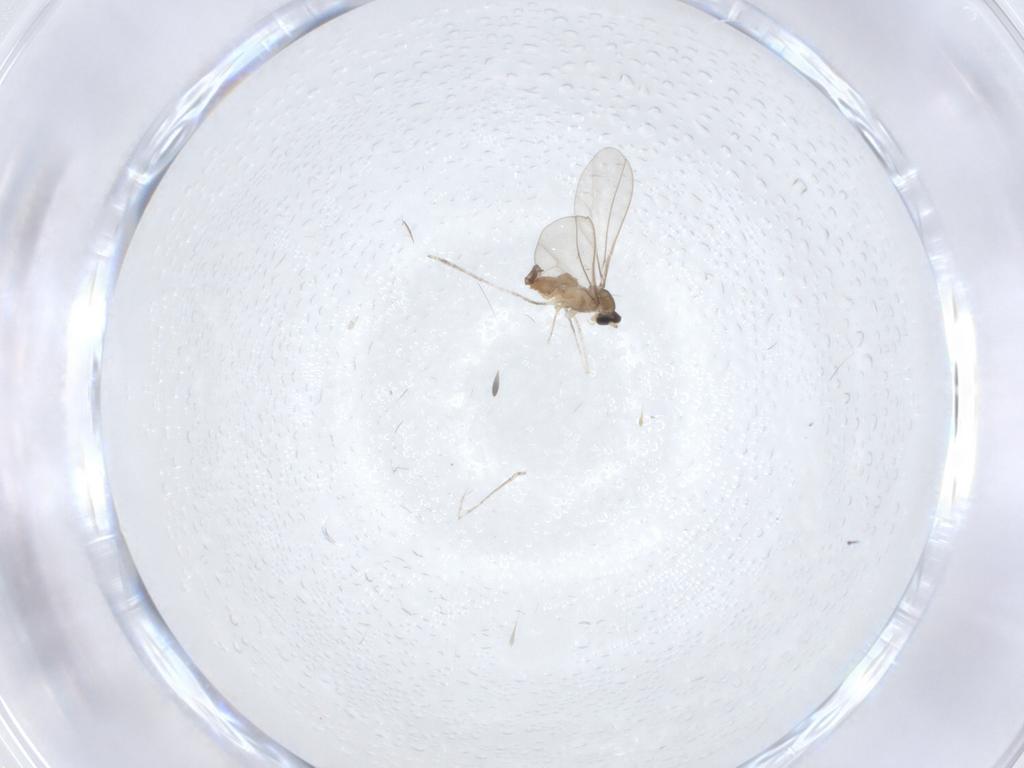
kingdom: Animalia
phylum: Arthropoda
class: Insecta
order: Diptera
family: Cecidomyiidae
